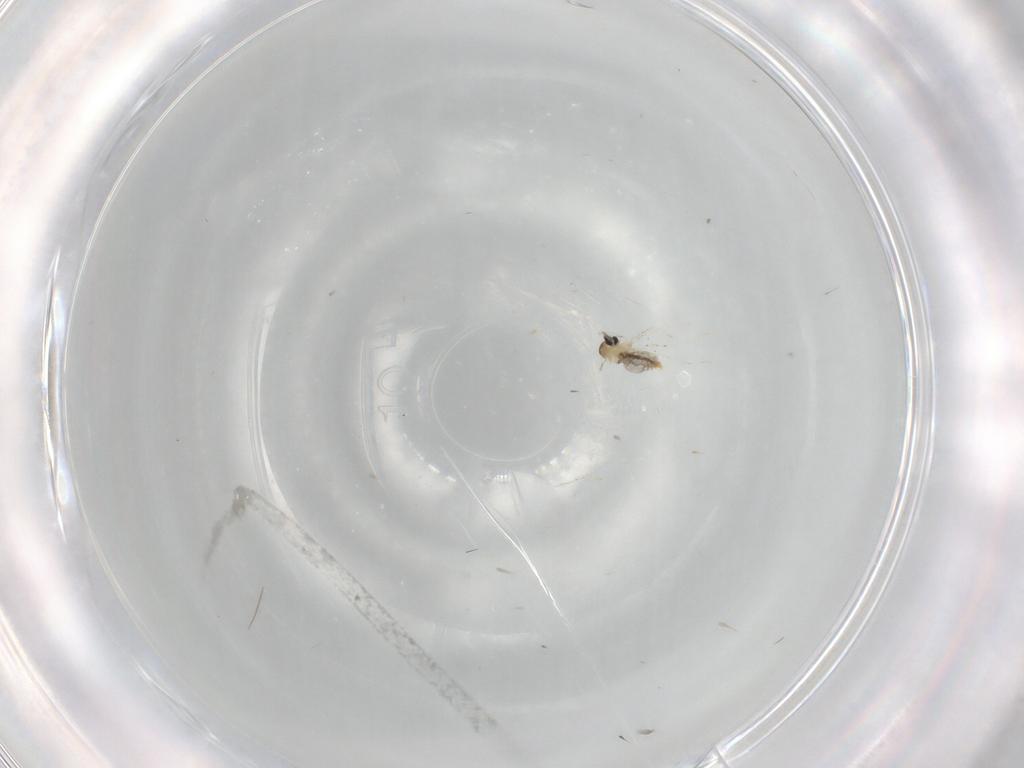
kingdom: Animalia
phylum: Arthropoda
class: Insecta
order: Diptera
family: Tabanidae
